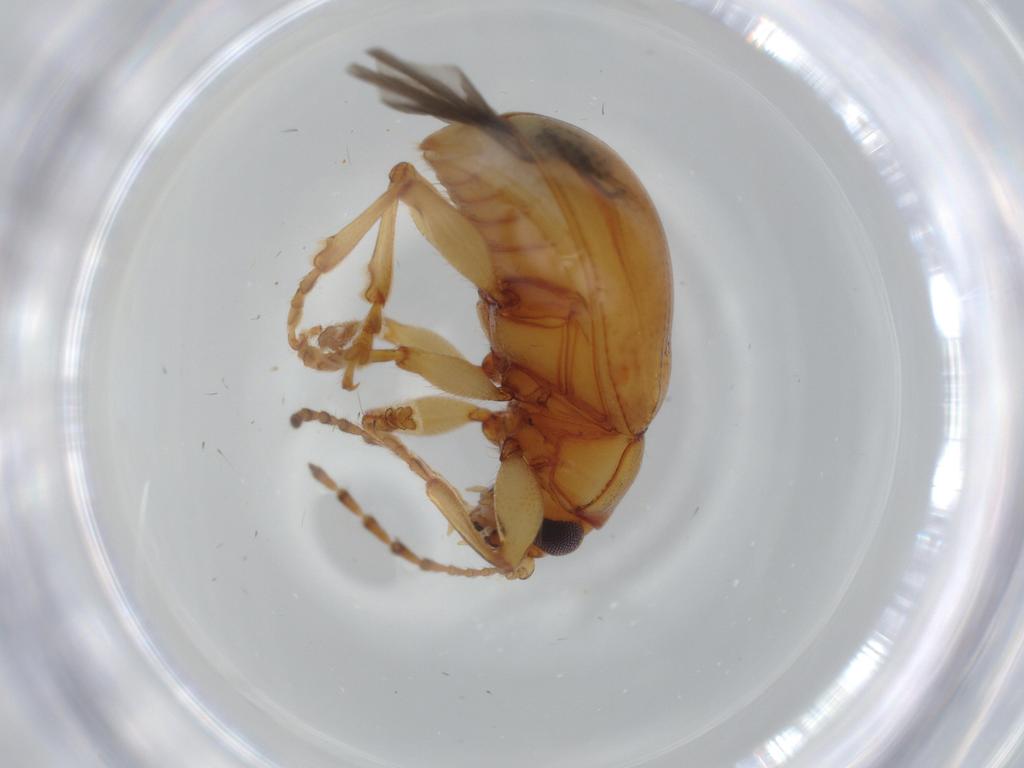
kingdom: Animalia
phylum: Arthropoda
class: Insecta
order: Coleoptera
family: Chrysomelidae
